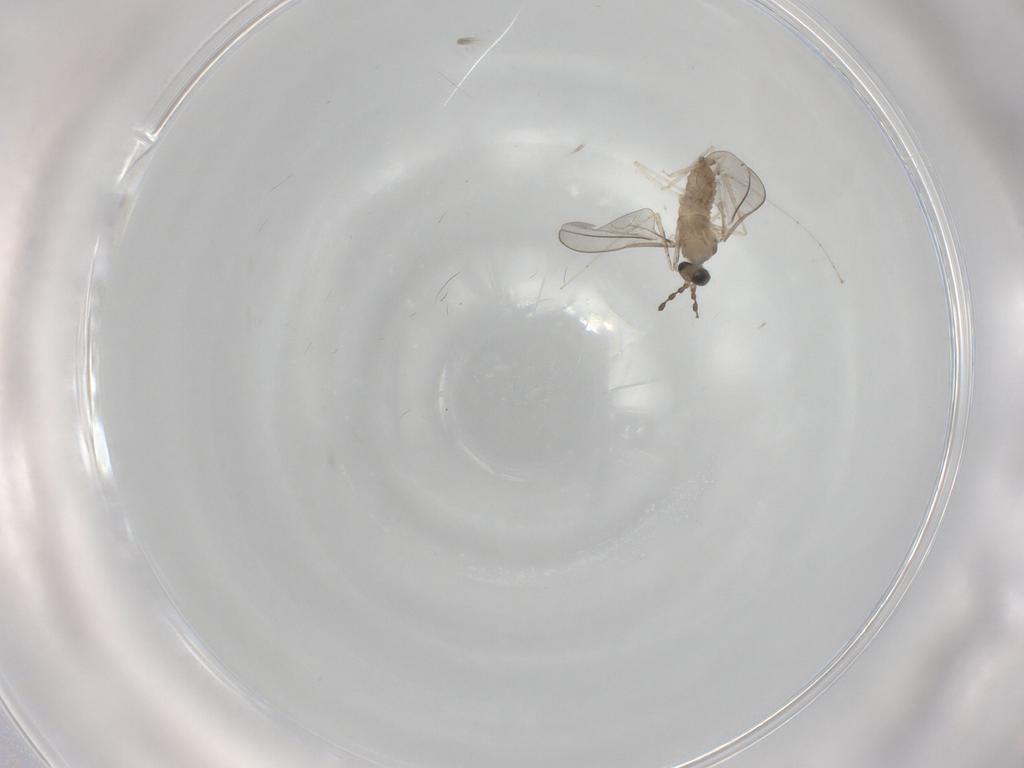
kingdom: Animalia
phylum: Arthropoda
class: Insecta
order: Diptera
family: Cecidomyiidae
